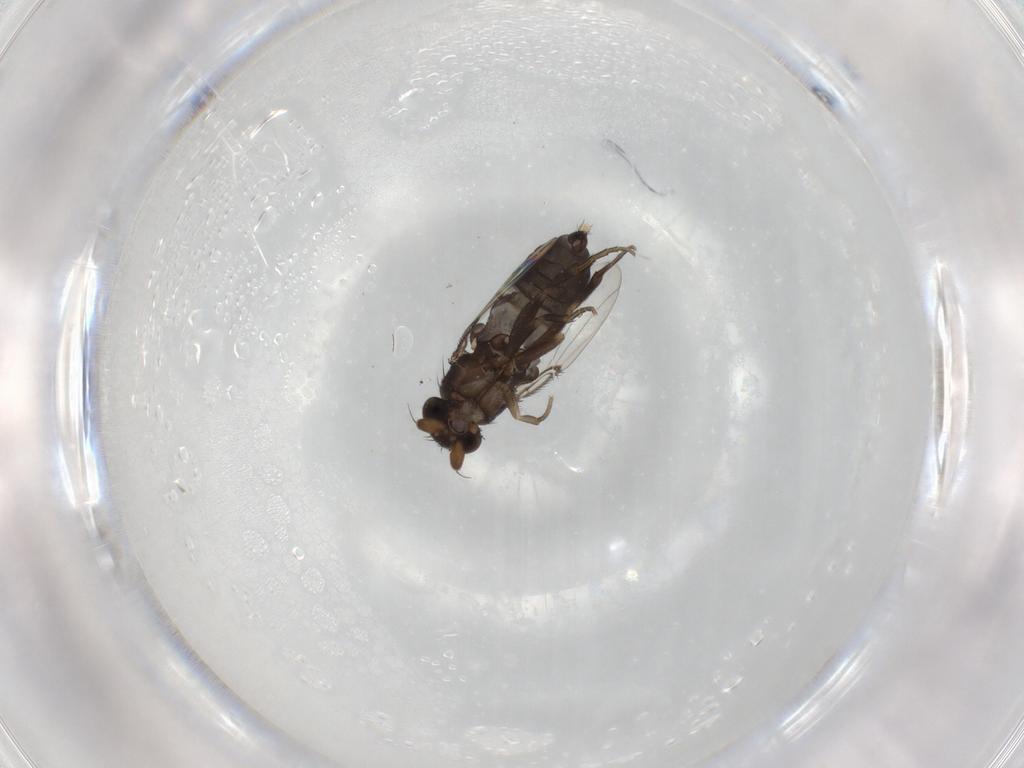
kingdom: Animalia
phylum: Arthropoda
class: Insecta
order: Diptera
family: Phoridae
